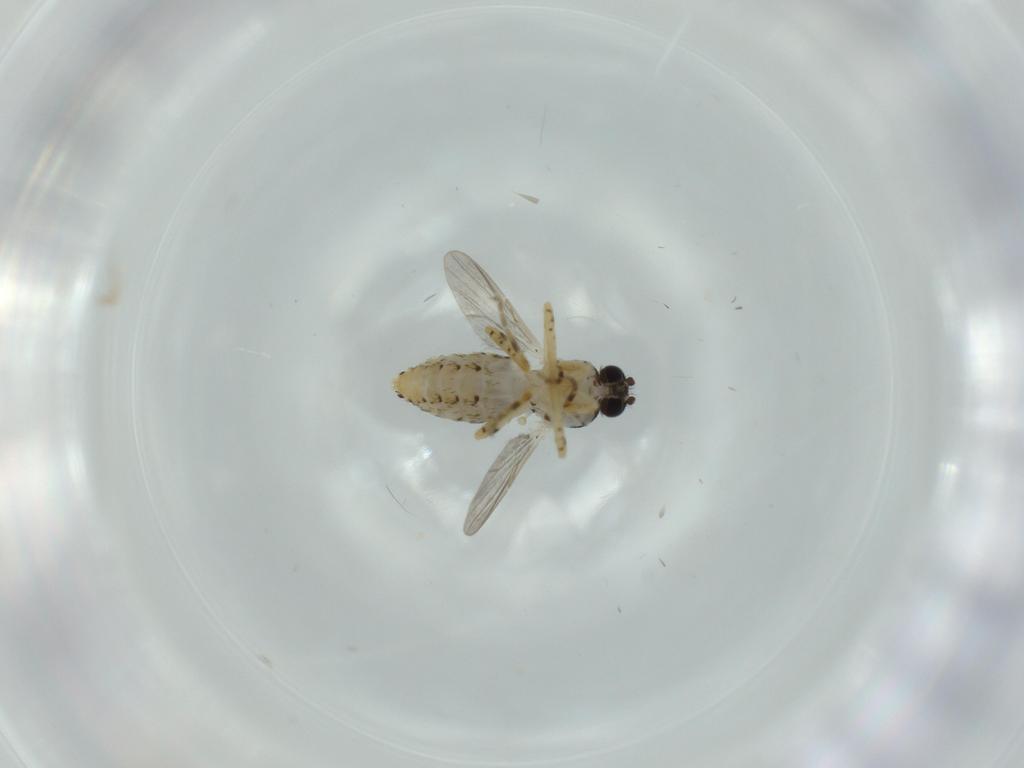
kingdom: Animalia
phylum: Arthropoda
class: Insecta
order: Diptera
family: Ceratopogonidae
